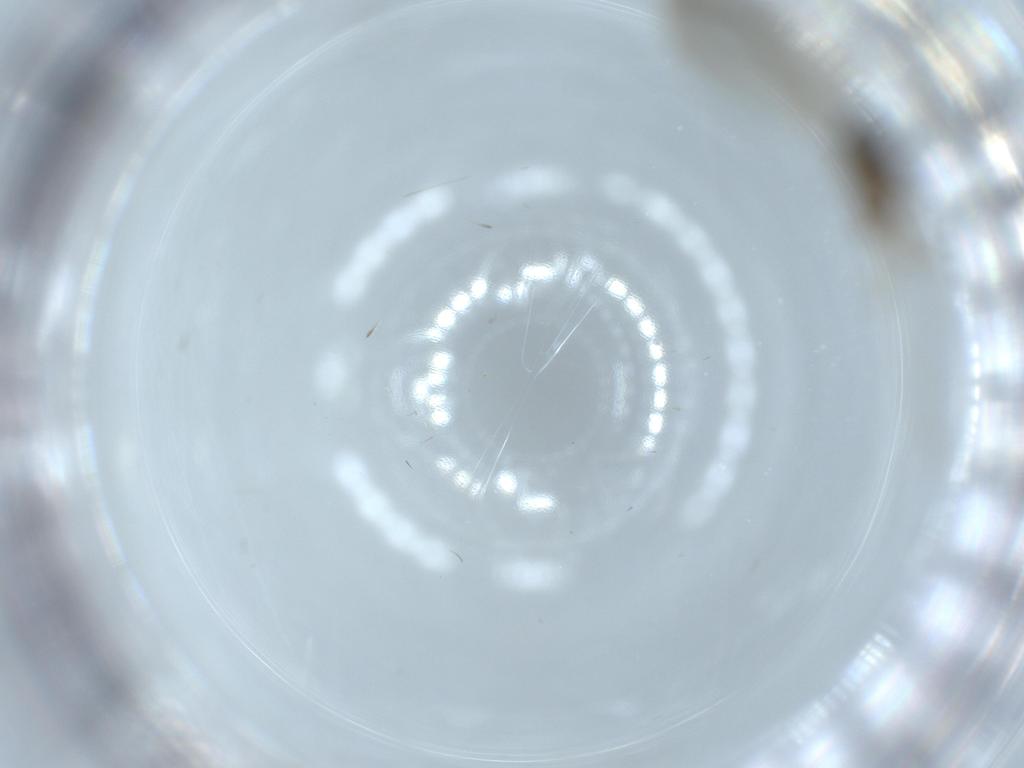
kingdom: Animalia
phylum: Arthropoda
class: Insecta
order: Diptera
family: Cecidomyiidae
